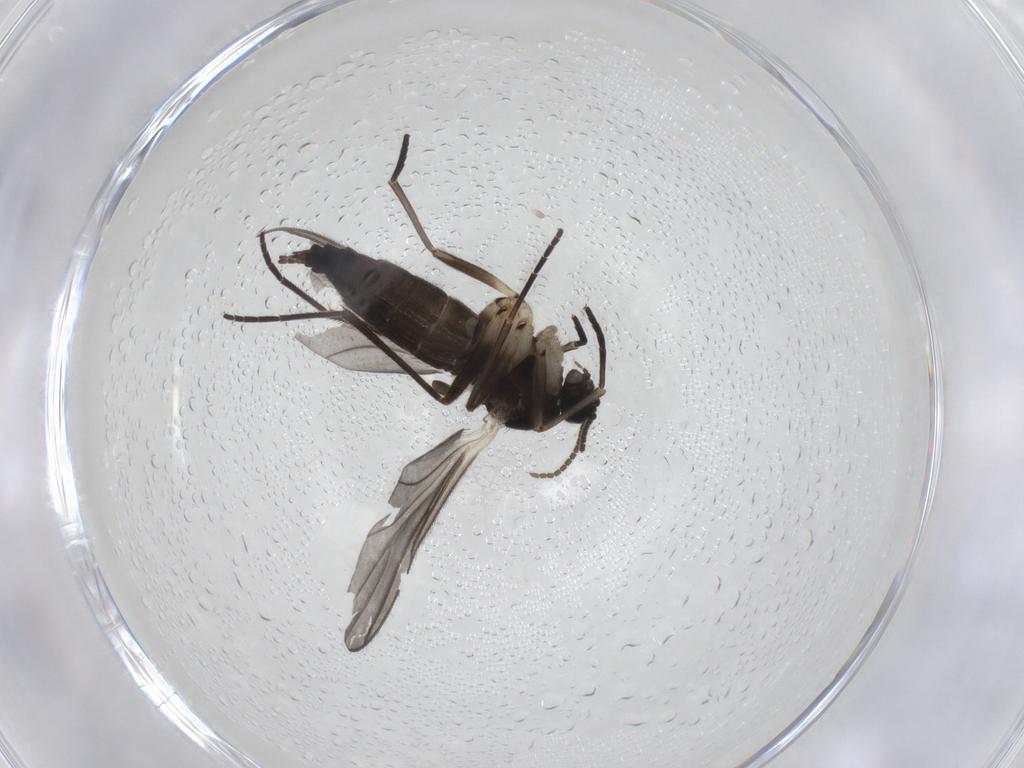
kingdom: Animalia
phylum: Arthropoda
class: Insecta
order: Diptera
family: Sciaridae
